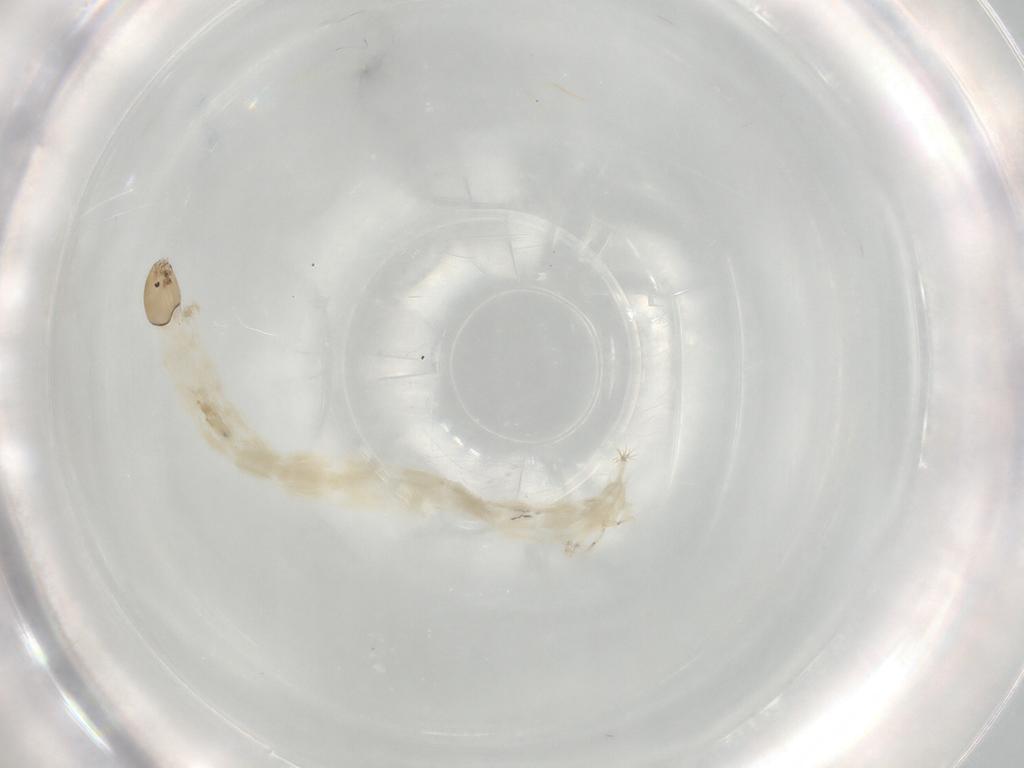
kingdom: Animalia
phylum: Arthropoda
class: Insecta
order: Diptera
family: Chironomidae
